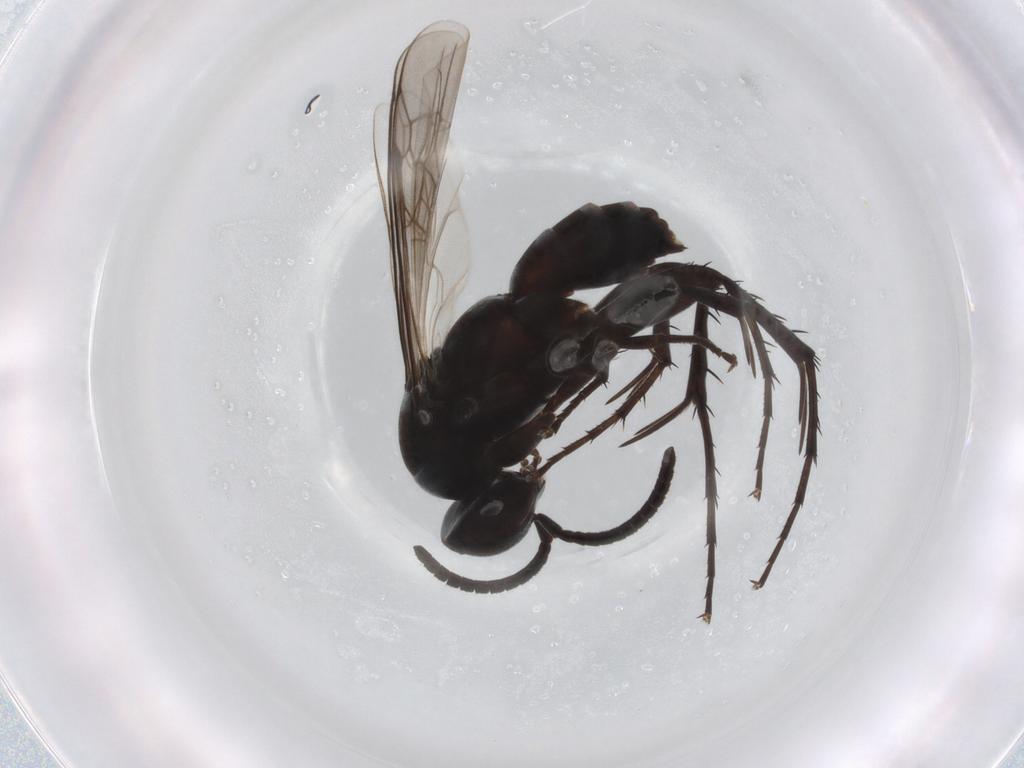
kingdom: Animalia
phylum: Arthropoda
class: Insecta
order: Hymenoptera
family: Pompilidae
